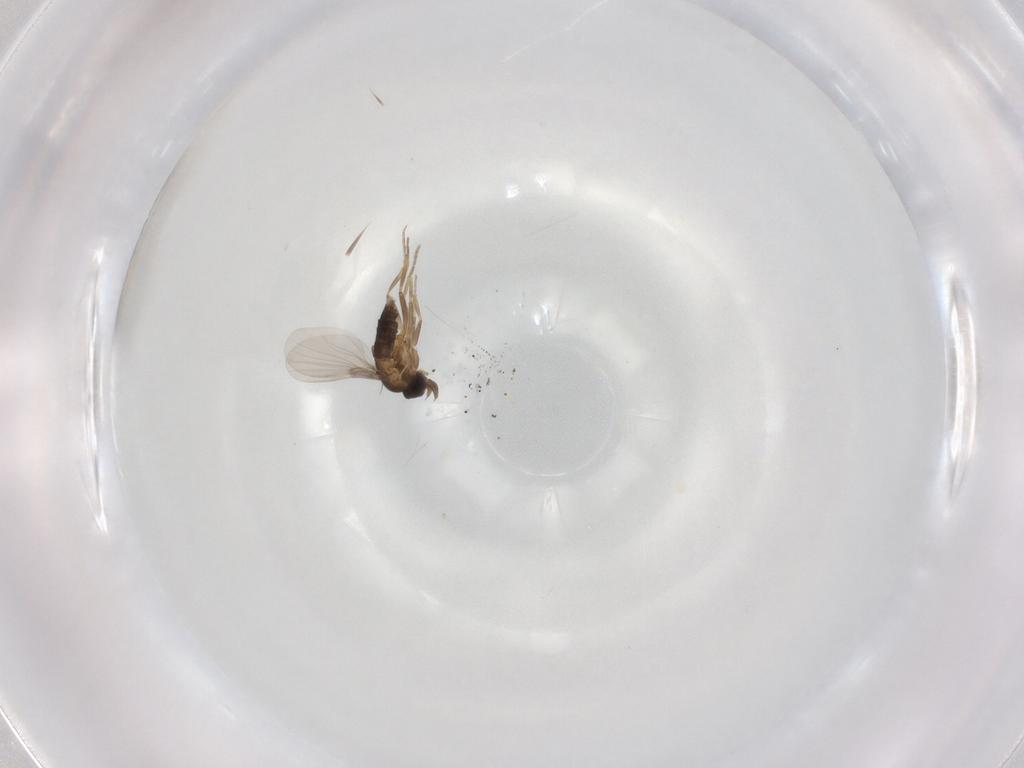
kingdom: Animalia
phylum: Arthropoda
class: Insecta
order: Diptera
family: Phoridae
